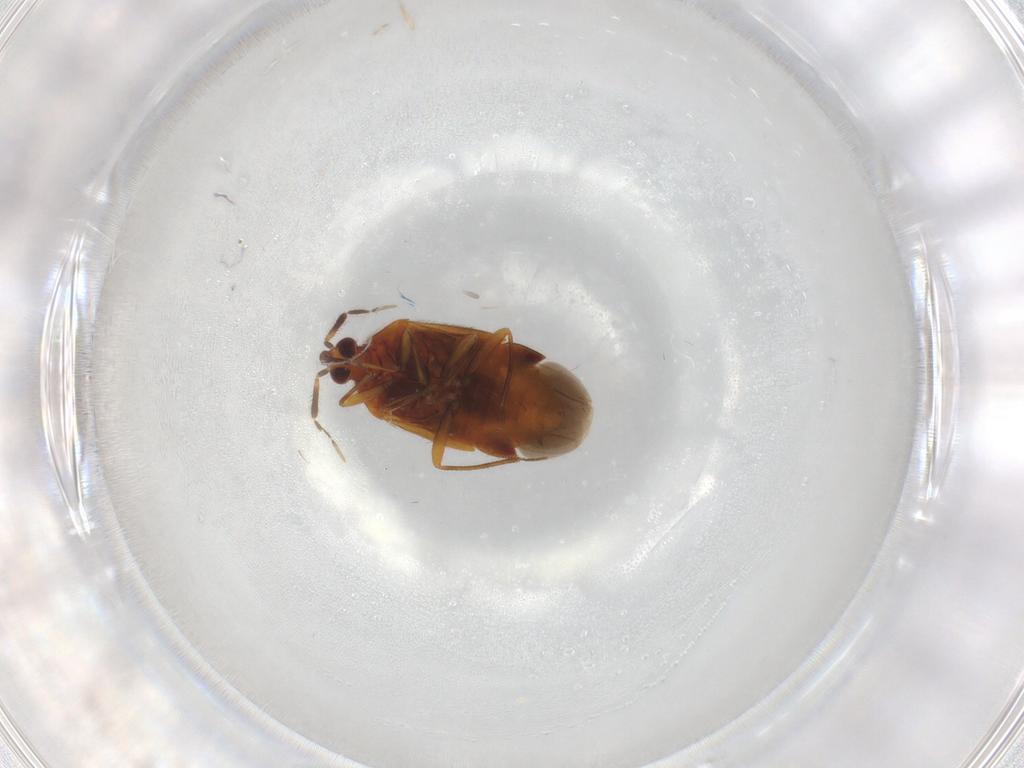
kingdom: Animalia
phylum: Arthropoda
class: Insecta
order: Hemiptera
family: Anthocoridae
